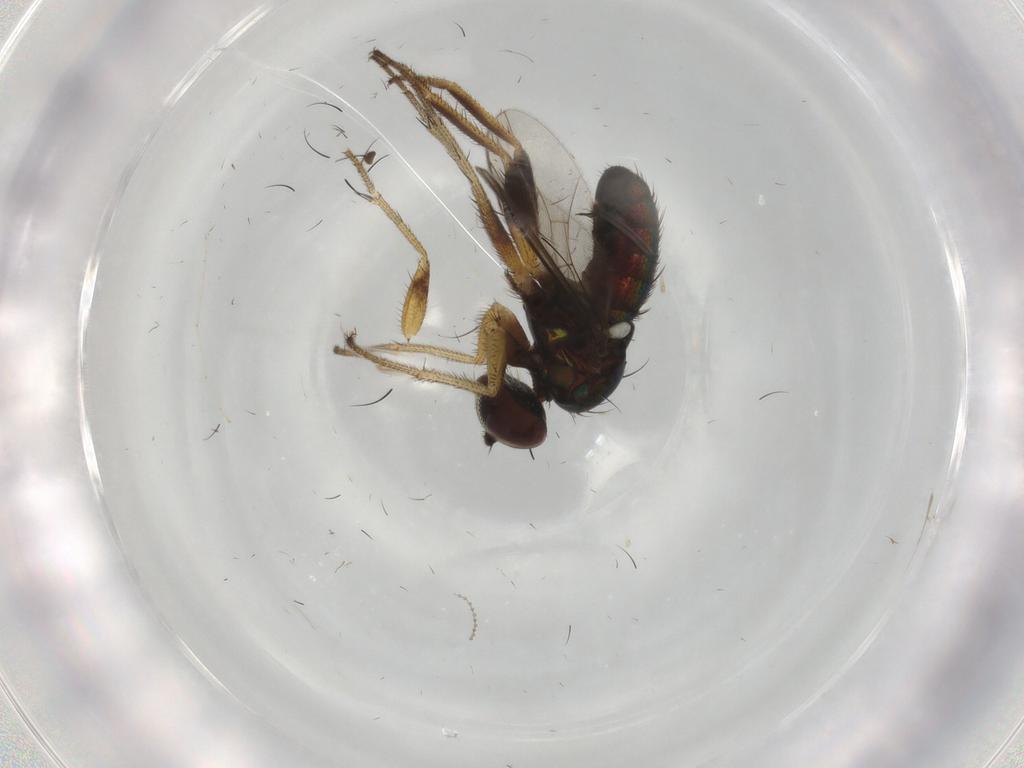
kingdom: Animalia
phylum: Arthropoda
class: Insecta
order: Diptera
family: Dolichopodidae
